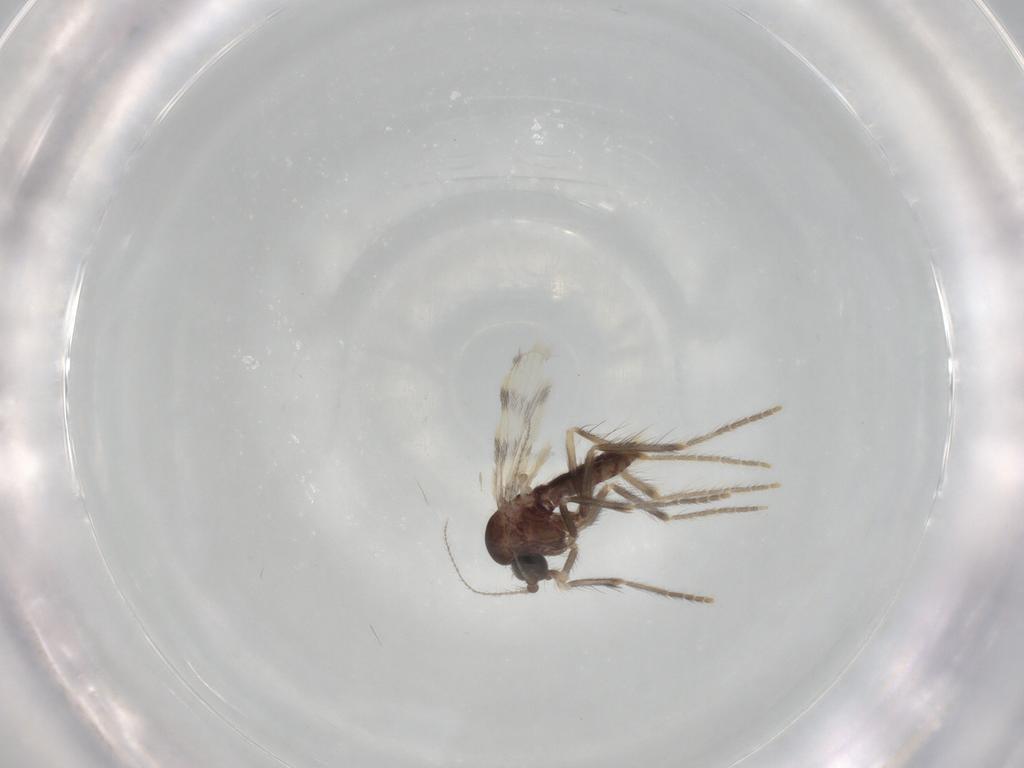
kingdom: Animalia
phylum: Arthropoda
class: Insecta
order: Diptera
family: Corethrellidae
